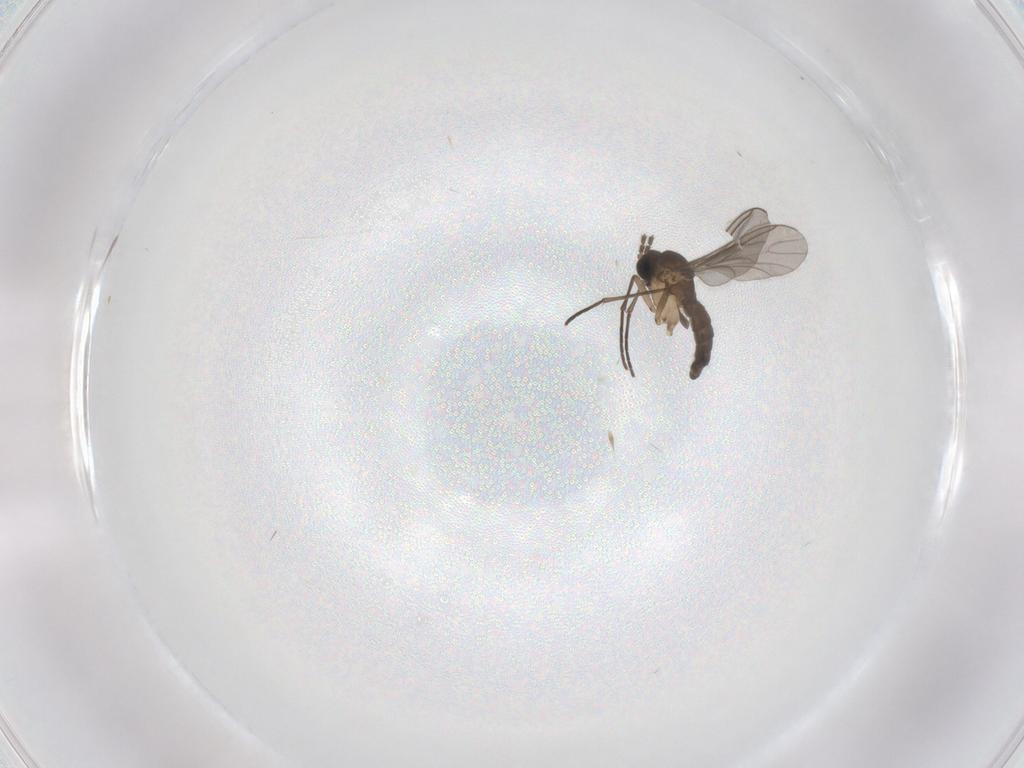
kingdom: Animalia
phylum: Arthropoda
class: Insecta
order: Diptera
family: Sciaridae
